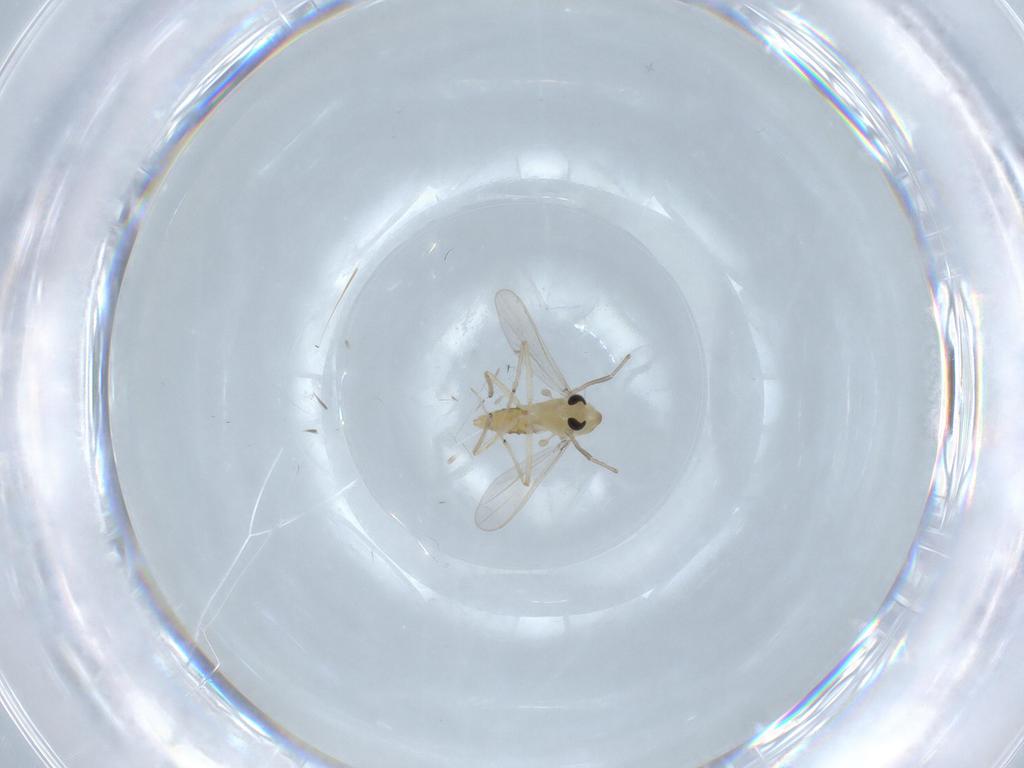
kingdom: Animalia
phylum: Arthropoda
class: Insecta
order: Diptera
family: Chironomidae
